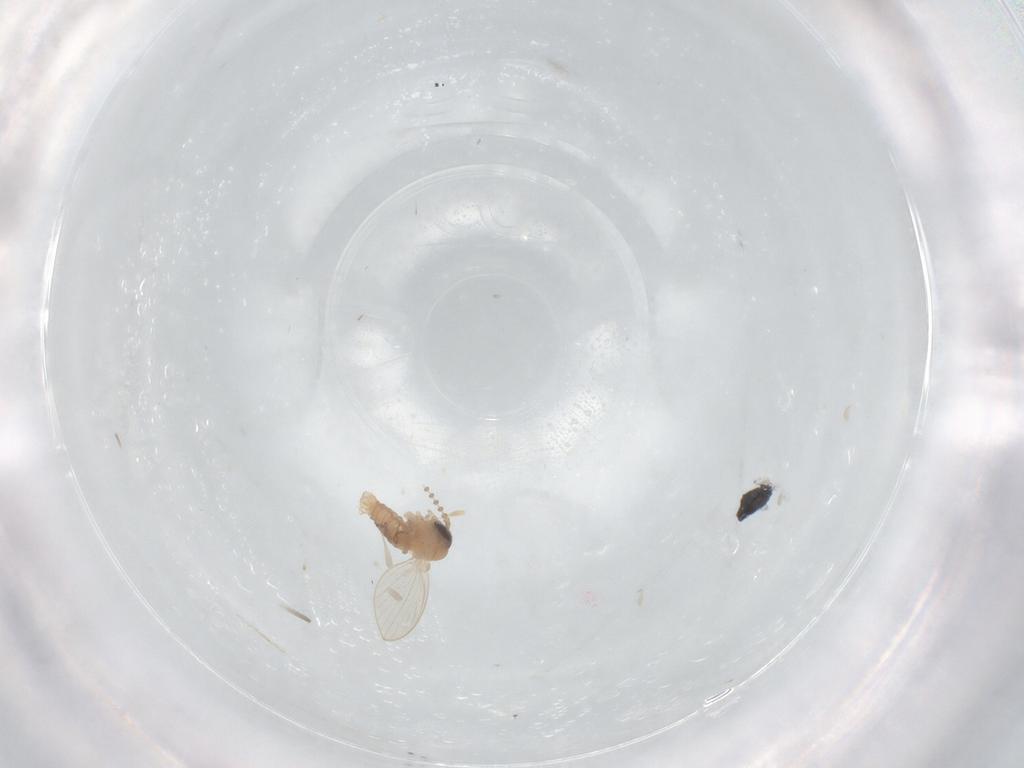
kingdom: Animalia
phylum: Arthropoda
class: Insecta
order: Diptera
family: Psychodidae
